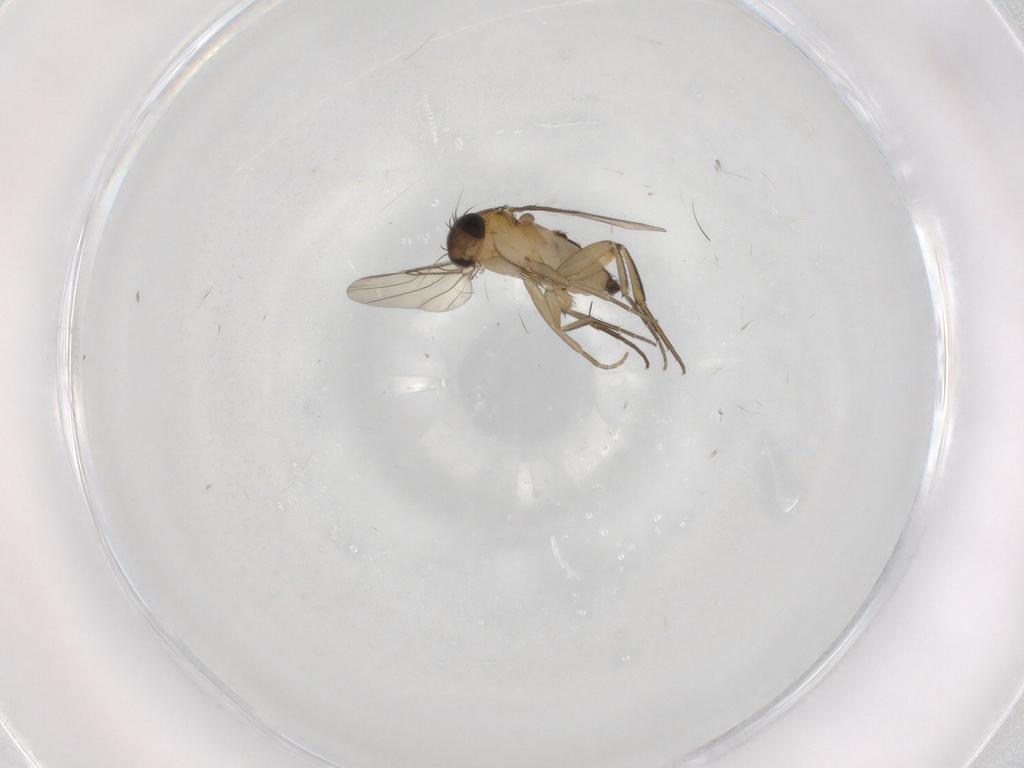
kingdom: Animalia
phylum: Arthropoda
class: Insecta
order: Diptera
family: Phoridae
